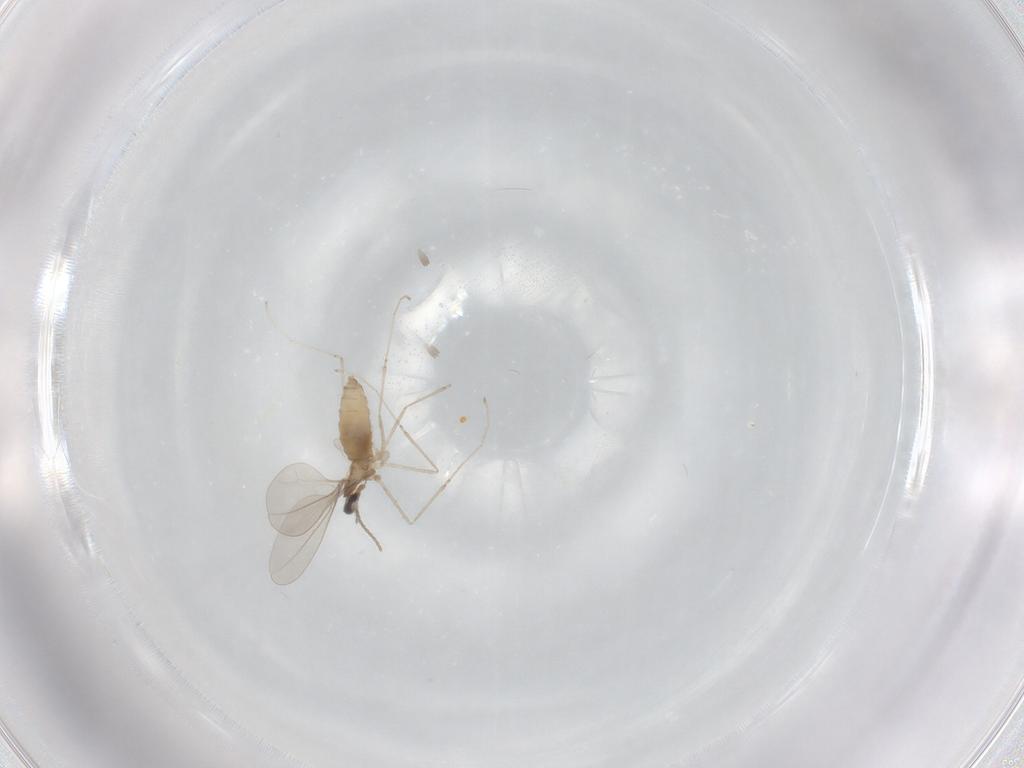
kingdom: Animalia
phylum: Arthropoda
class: Insecta
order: Diptera
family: Cecidomyiidae
